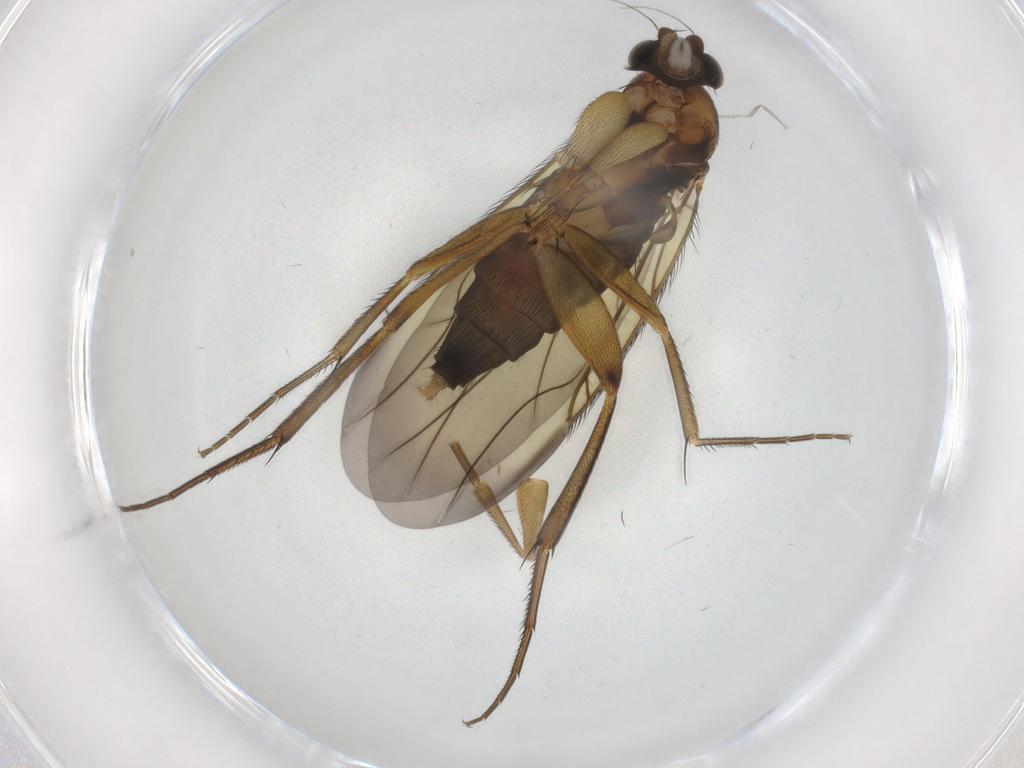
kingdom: Animalia
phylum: Arthropoda
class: Insecta
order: Diptera
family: Phoridae
